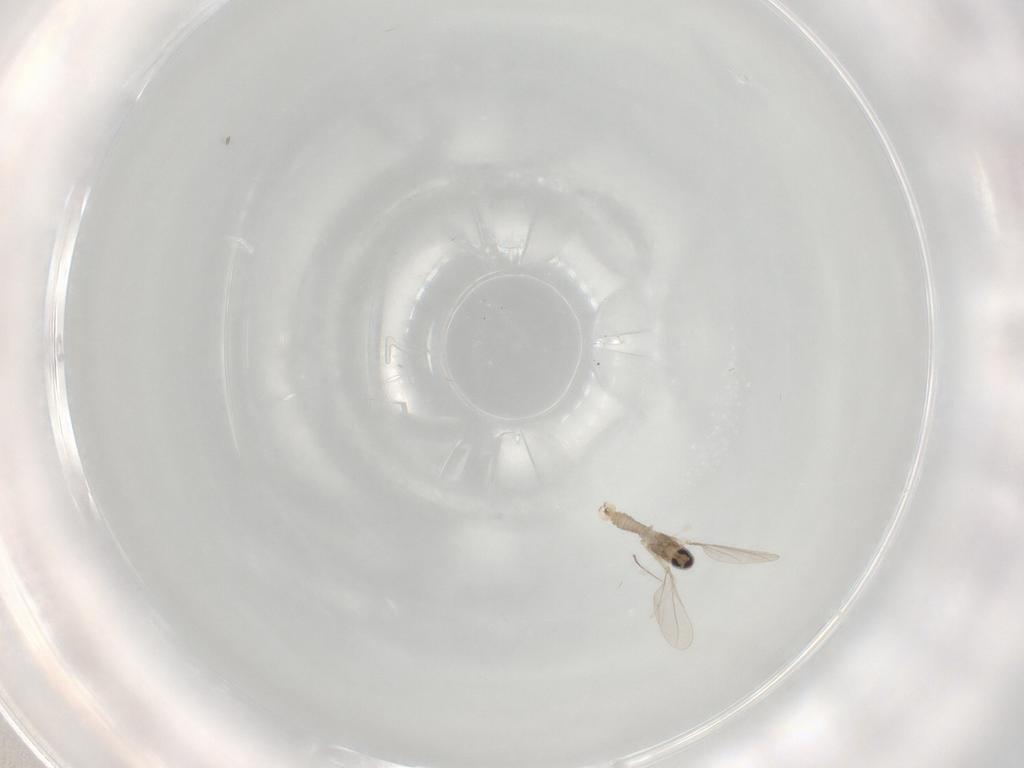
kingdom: Animalia
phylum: Arthropoda
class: Insecta
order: Diptera
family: Cecidomyiidae
